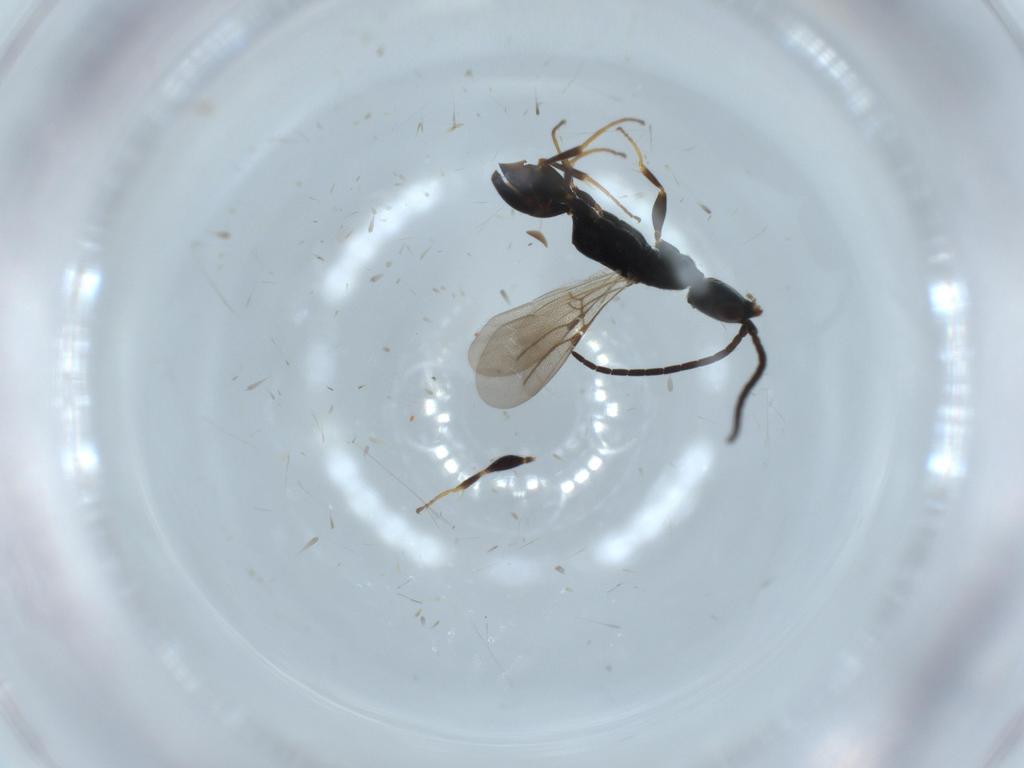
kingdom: Animalia
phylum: Arthropoda
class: Insecta
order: Hymenoptera
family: Bethylidae
